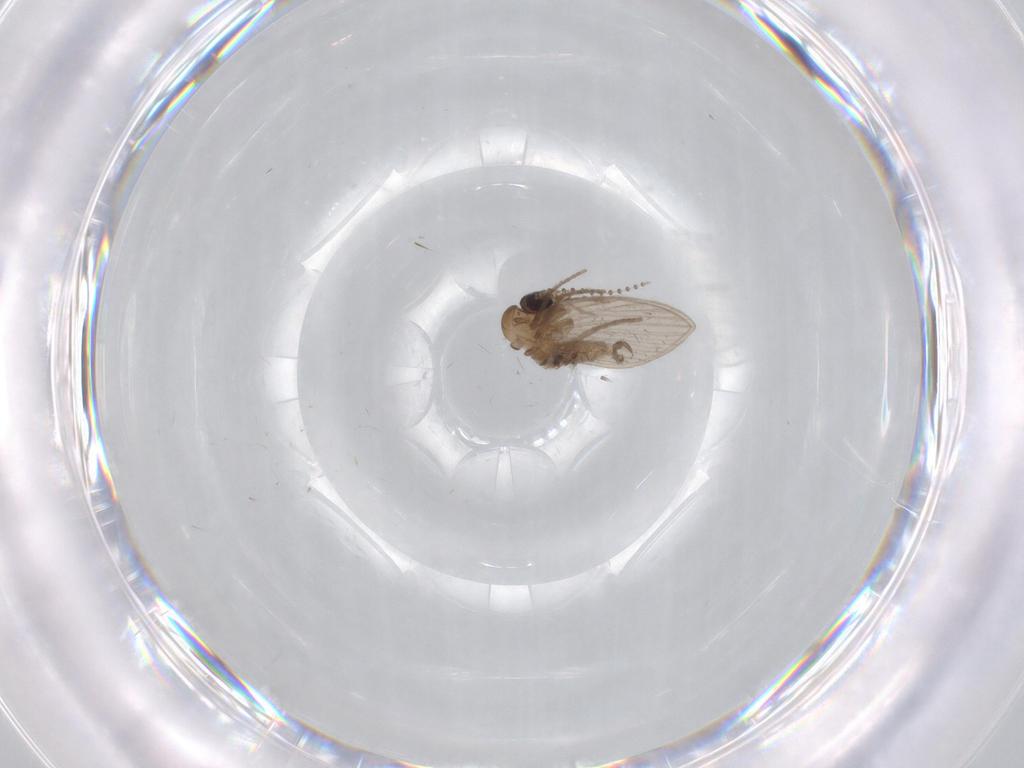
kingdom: Animalia
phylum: Arthropoda
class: Insecta
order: Diptera
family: Psychodidae
